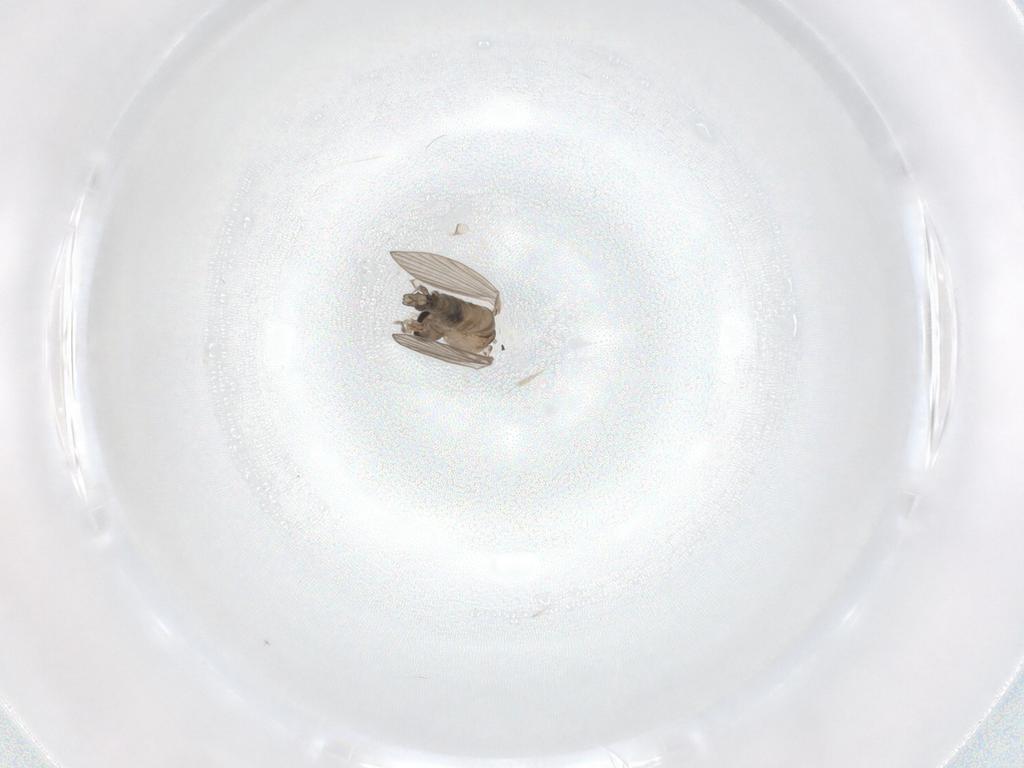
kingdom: Animalia
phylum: Arthropoda
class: Insecta
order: Diptera
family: Psychodidae
